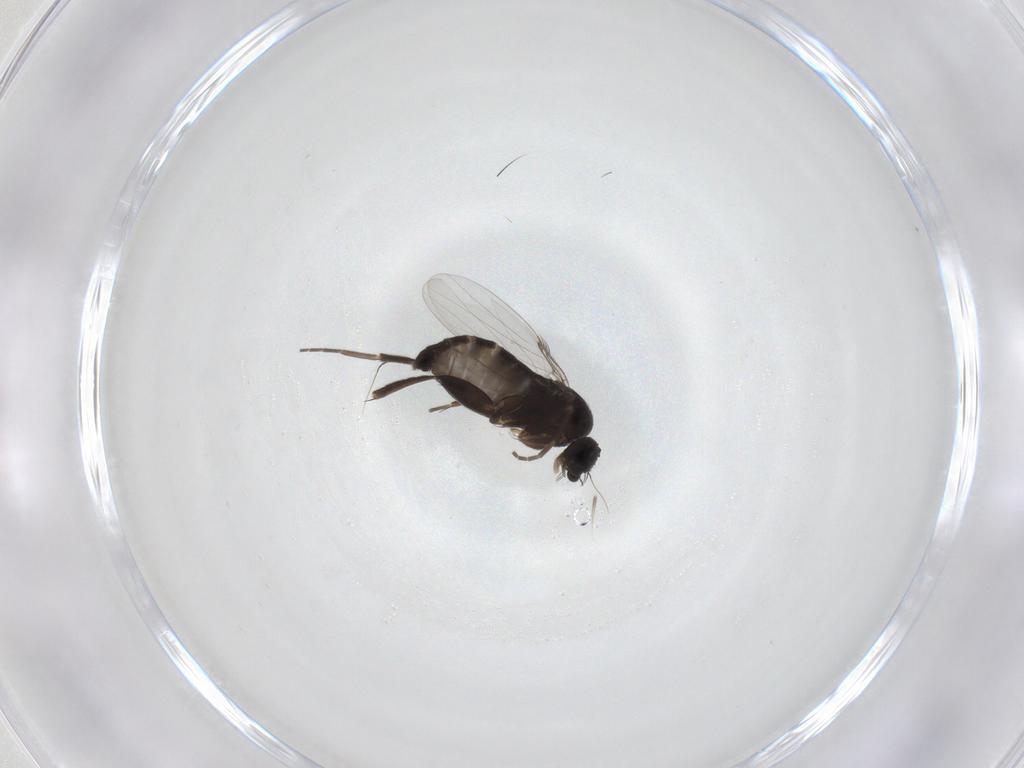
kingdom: Animalia
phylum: Arthropoda
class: Insecta
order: Diptera
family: Phoridae
